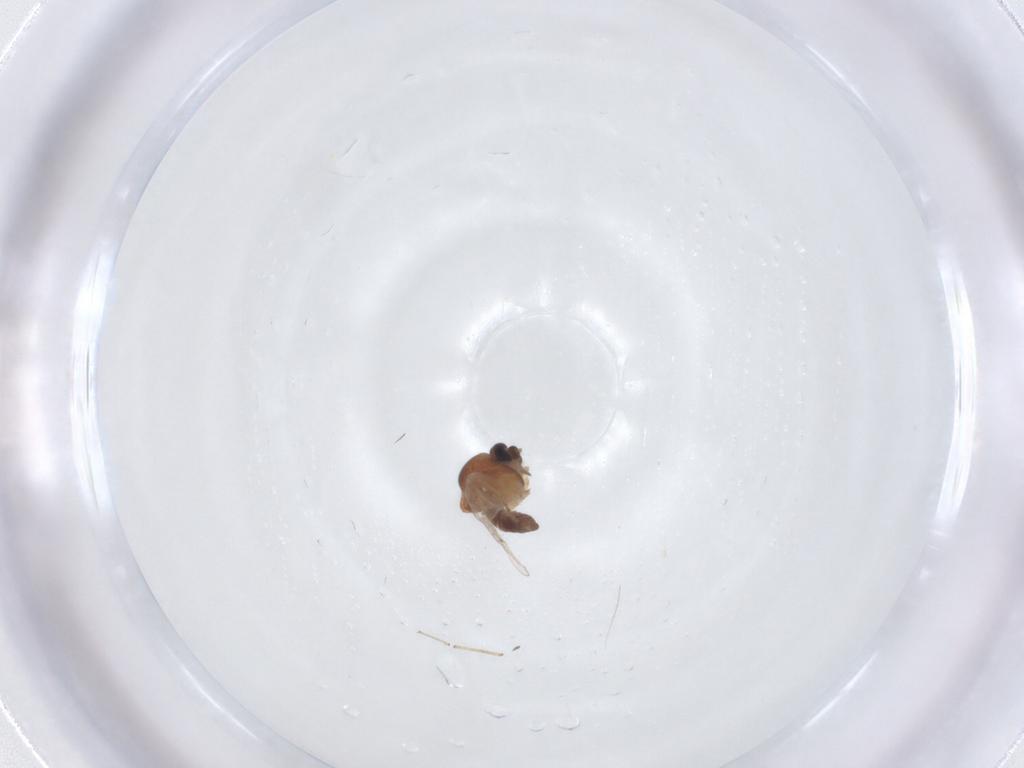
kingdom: Animalia
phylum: Arthropoda
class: Insecta
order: Diptera
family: Ceratopogonidae
